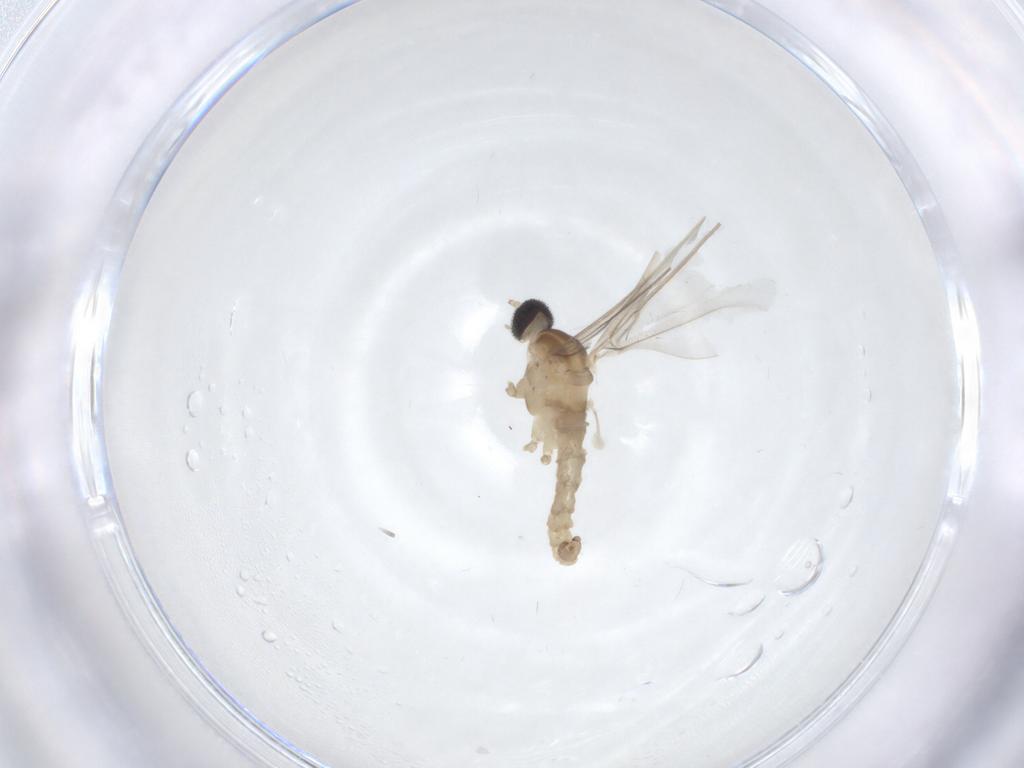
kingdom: Animalia
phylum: Arthropoda
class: Insecta
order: Diptera
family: Cecidomyiidae
